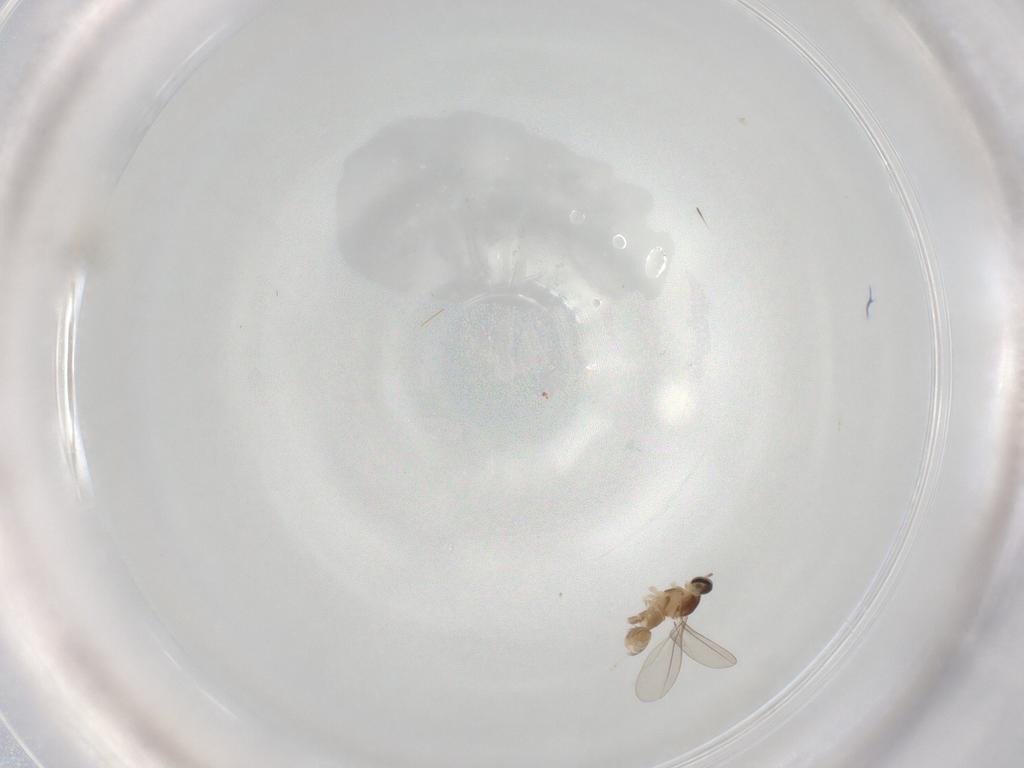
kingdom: Animalia
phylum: Arthropoda
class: Insecta
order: Diptera
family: Cecidomyiidae
